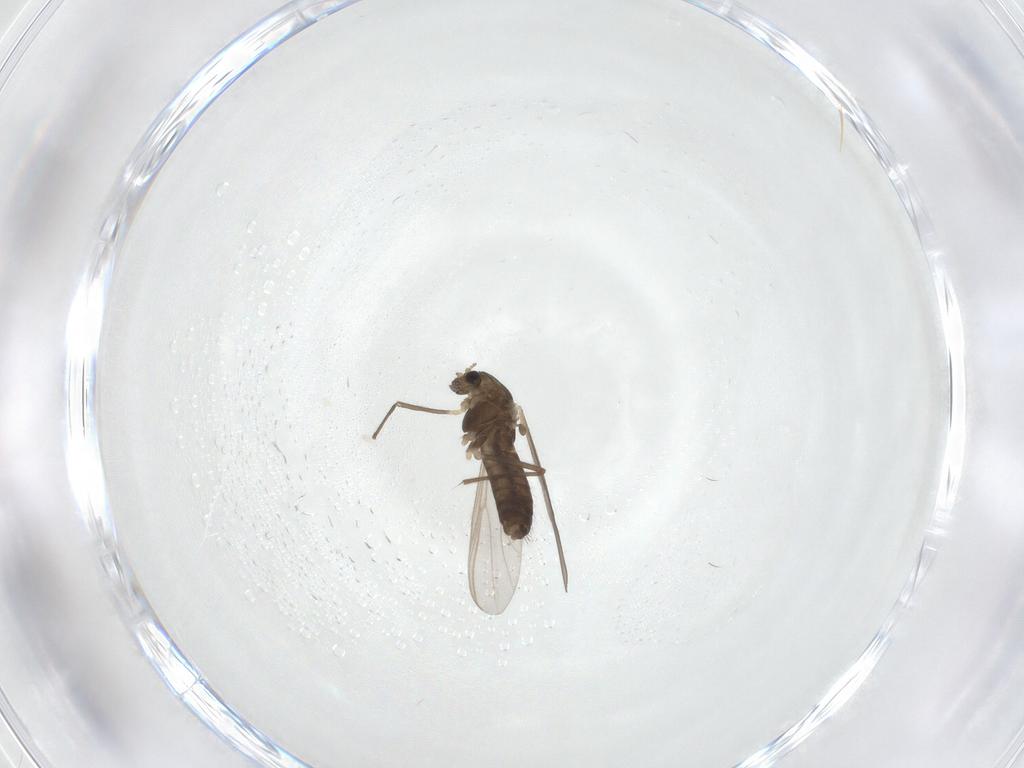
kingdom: Animalia
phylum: Arthropoda
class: Insecta
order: Diptera
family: Chironomidae
